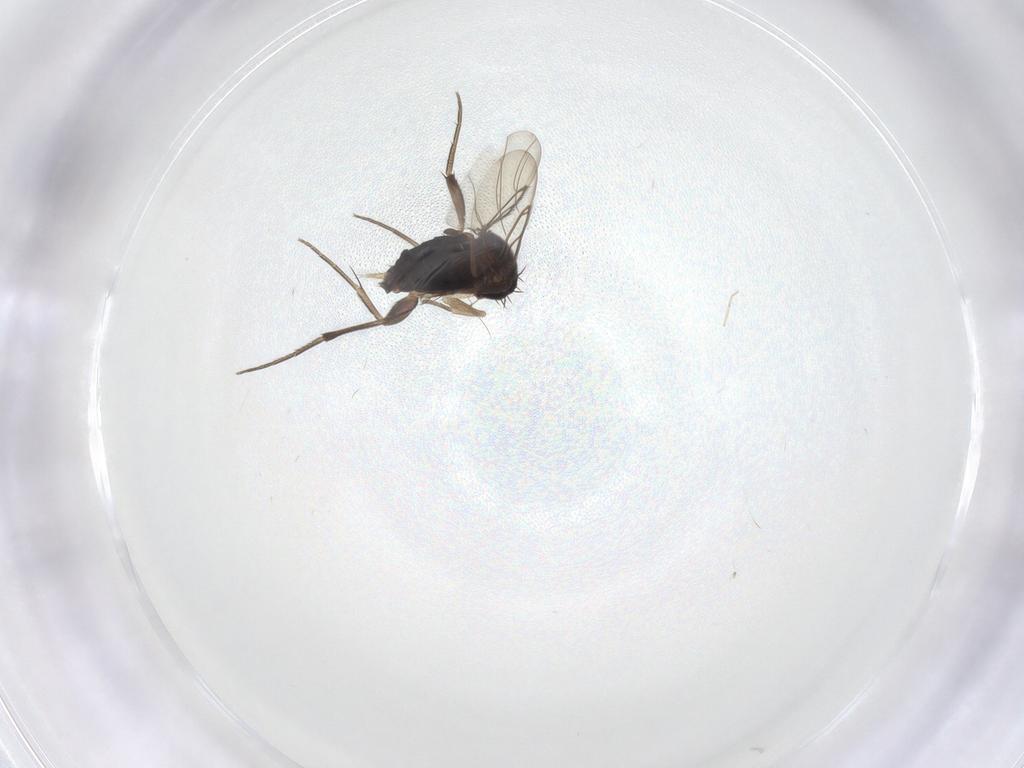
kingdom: Animalia
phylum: Arthropoda
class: Insecta
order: Diptera
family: Phoridae
